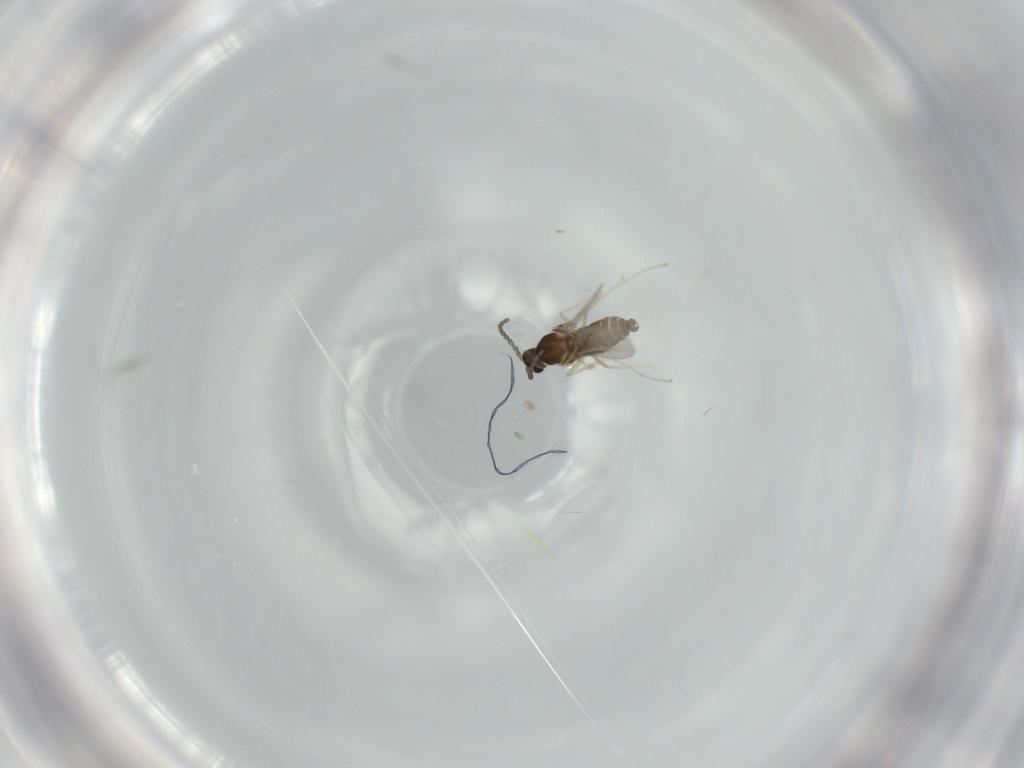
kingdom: Animalia
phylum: Arthropoda
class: Insecta
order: Diptera
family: Cecidomyiidae
